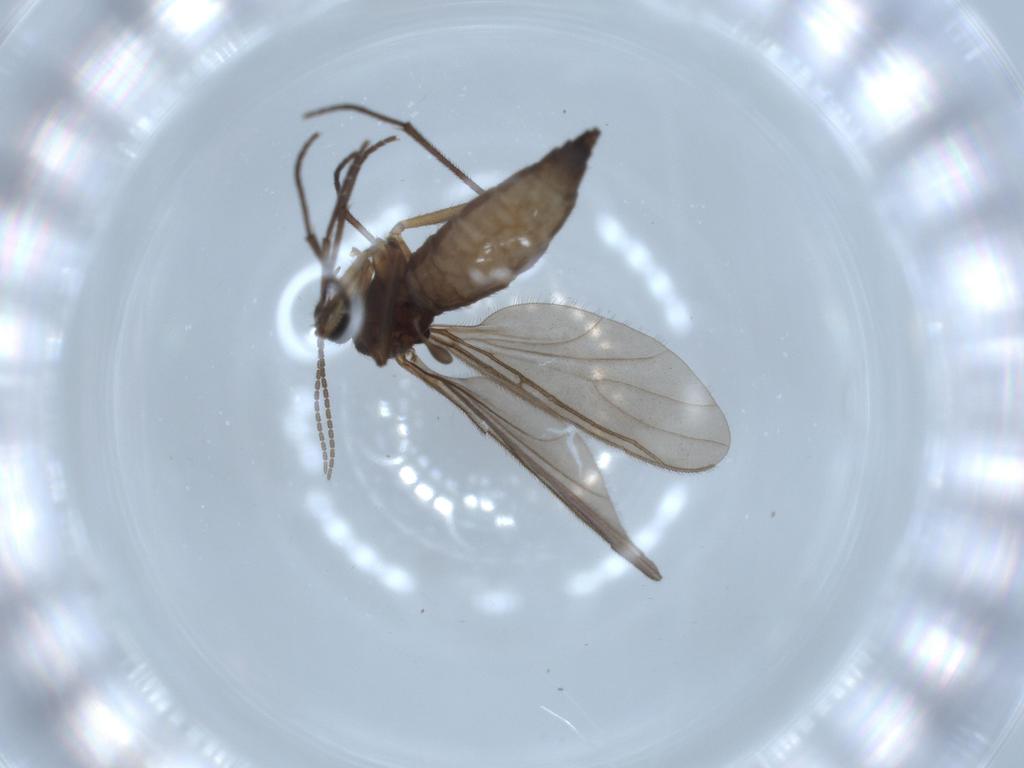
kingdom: Animalia
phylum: Arthropoda
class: Insecta
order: Diptera
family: Sciaridae
